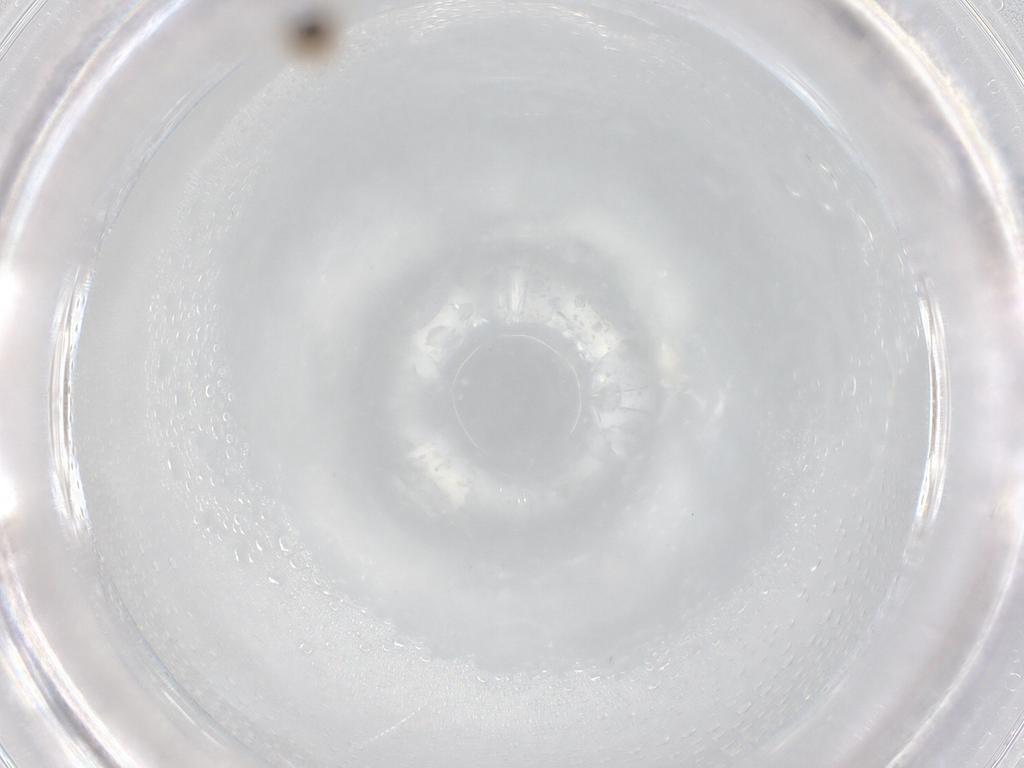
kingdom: Animalia
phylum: Arthropoda
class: Insecta
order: Diptera
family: Cecidomyiidae
